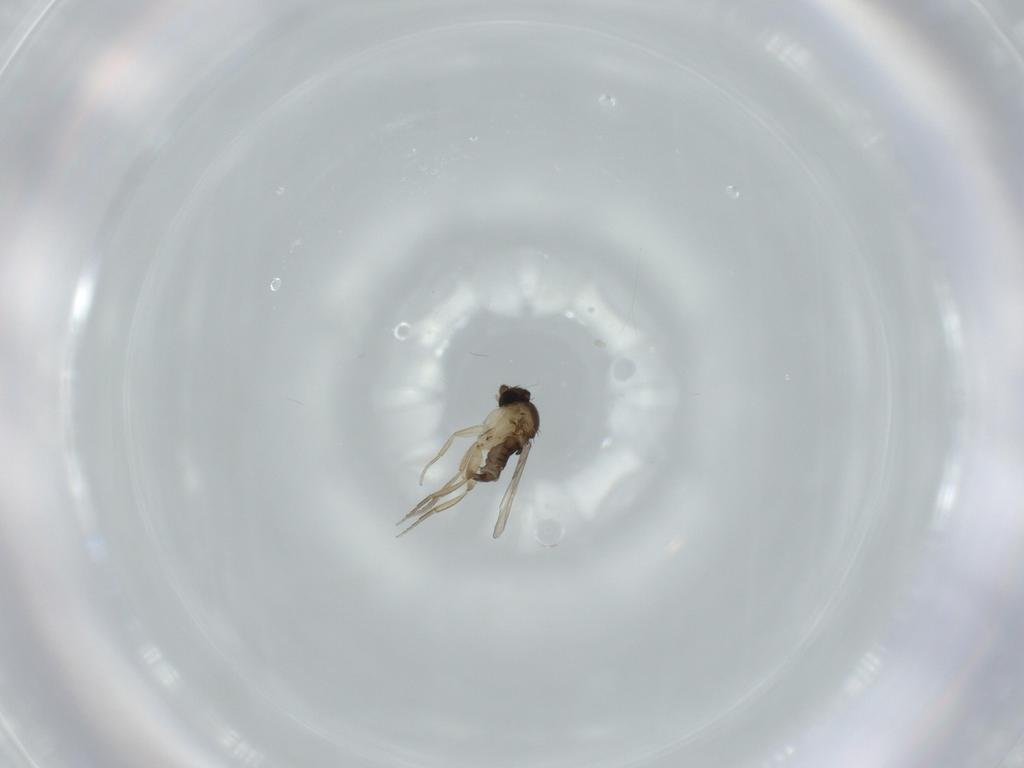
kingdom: Animalia
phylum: Arthropoda
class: Insecta
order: Diptera
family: Phoridae
